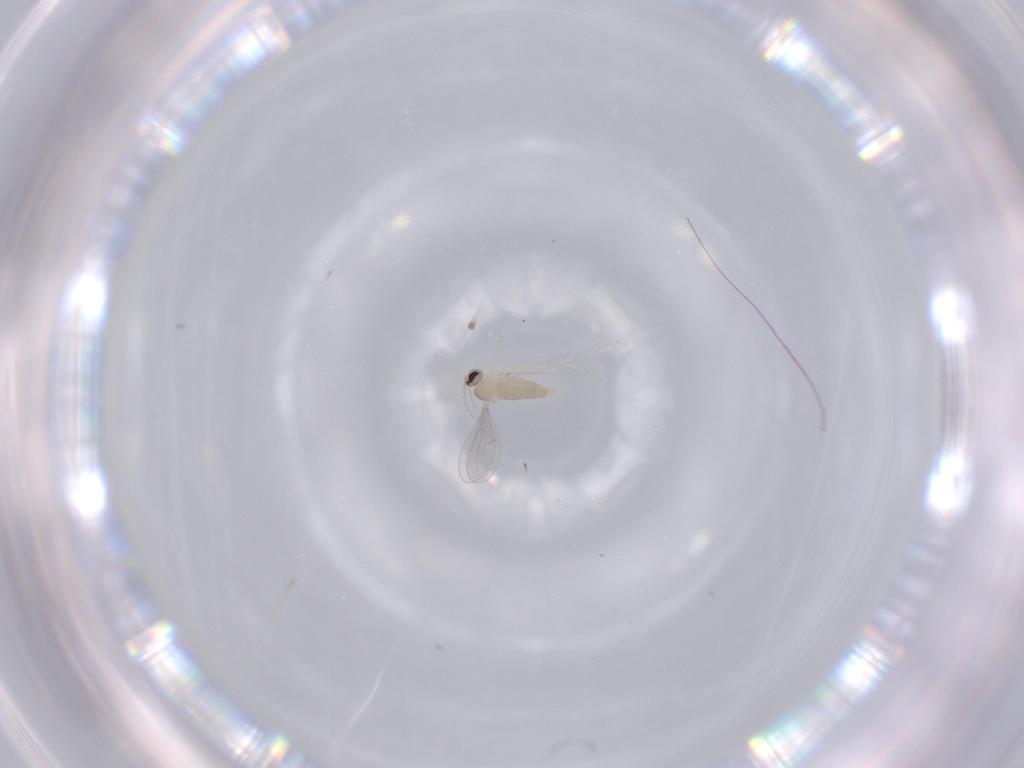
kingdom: Animalia
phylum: Arthropoda
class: Insecta
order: Diptera
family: Cecidomyiidae
